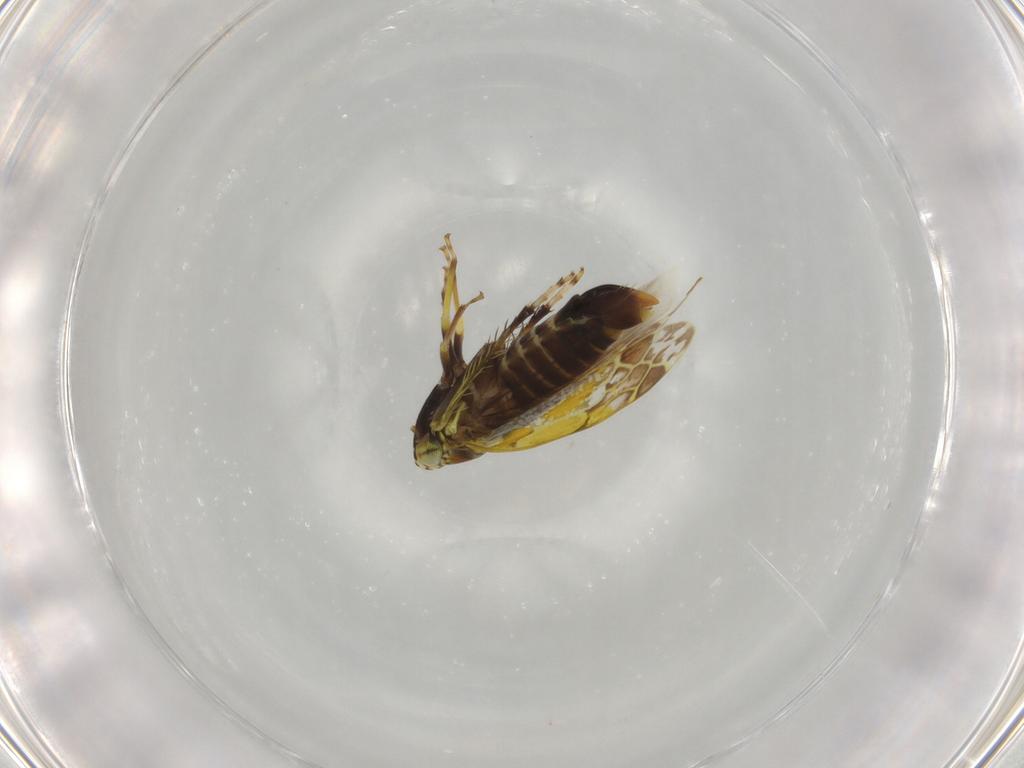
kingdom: Animalia
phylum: Arthropoda
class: Insecta
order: Hemiptera
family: Cicadellidae
